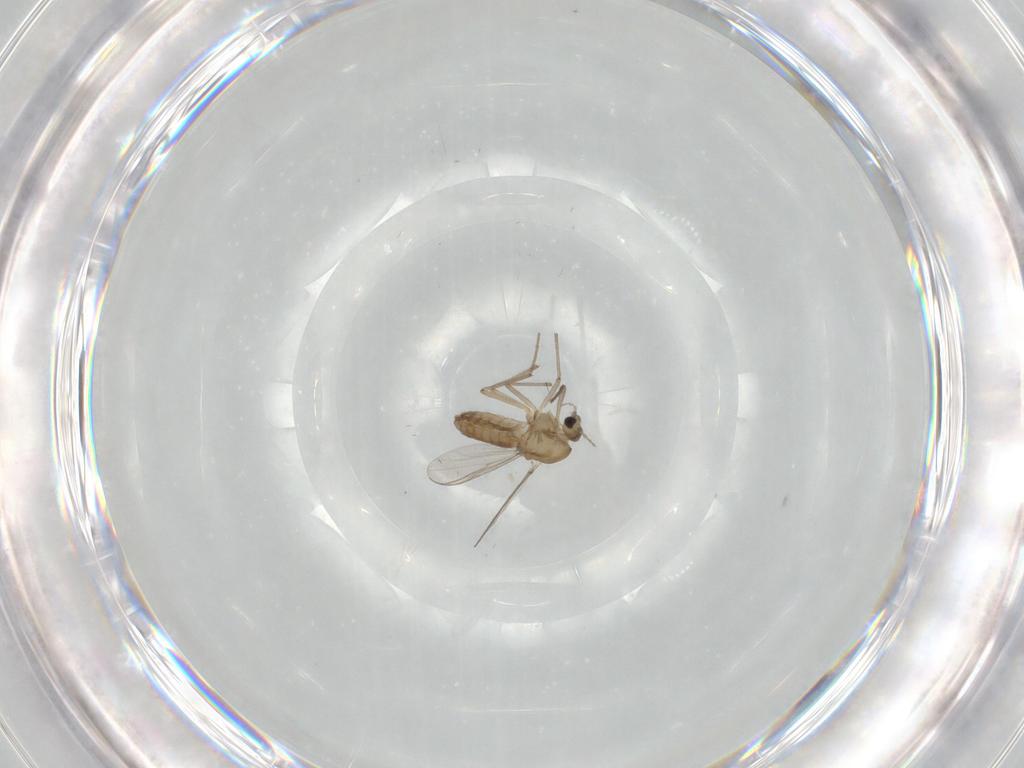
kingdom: Animalia
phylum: Arthropoda
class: Insecta
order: Diptera
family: Chironomidae
